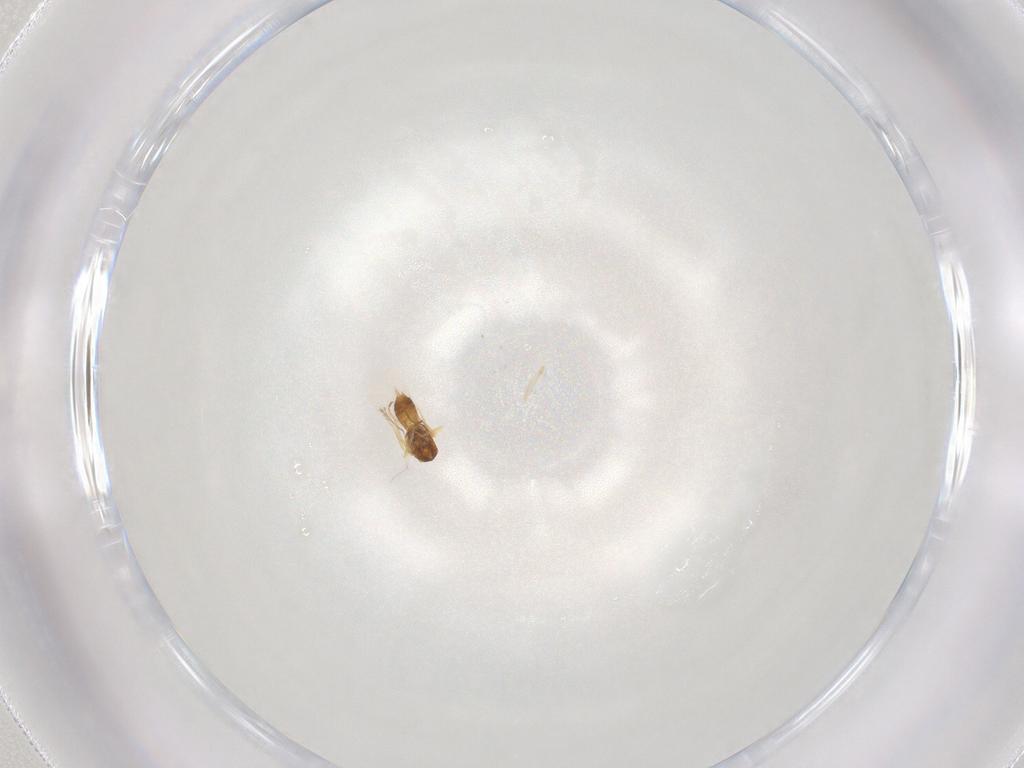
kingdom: Animalia
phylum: Arthropoda
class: Insecta
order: Hymenoptera
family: Eulophidae
